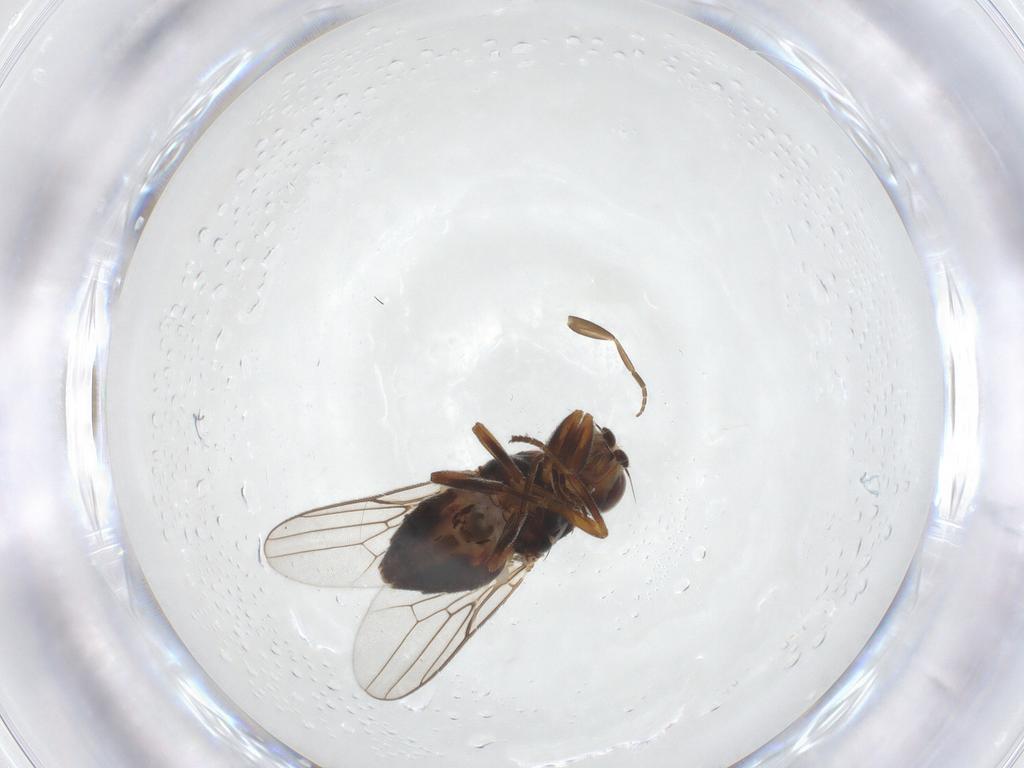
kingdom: Animalia
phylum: Arthropoda
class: Insecta
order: Diptera
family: Chloropidae
